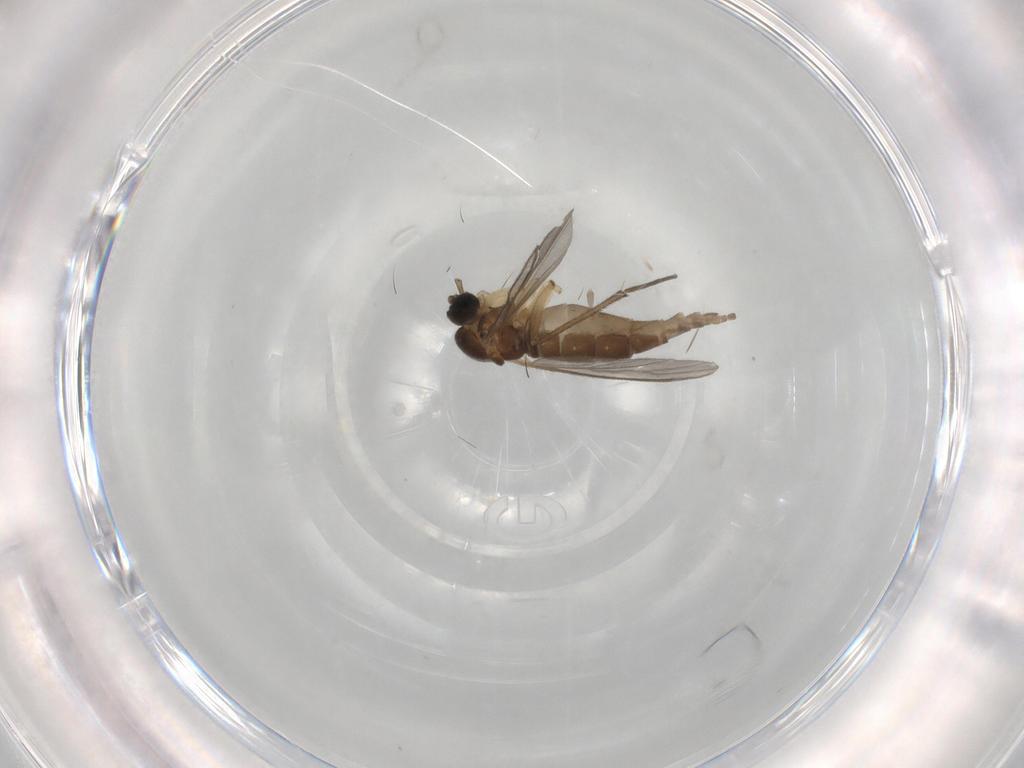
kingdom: Animalia
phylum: Arthropoda
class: Insecta
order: Diptera
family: Sciaridae
